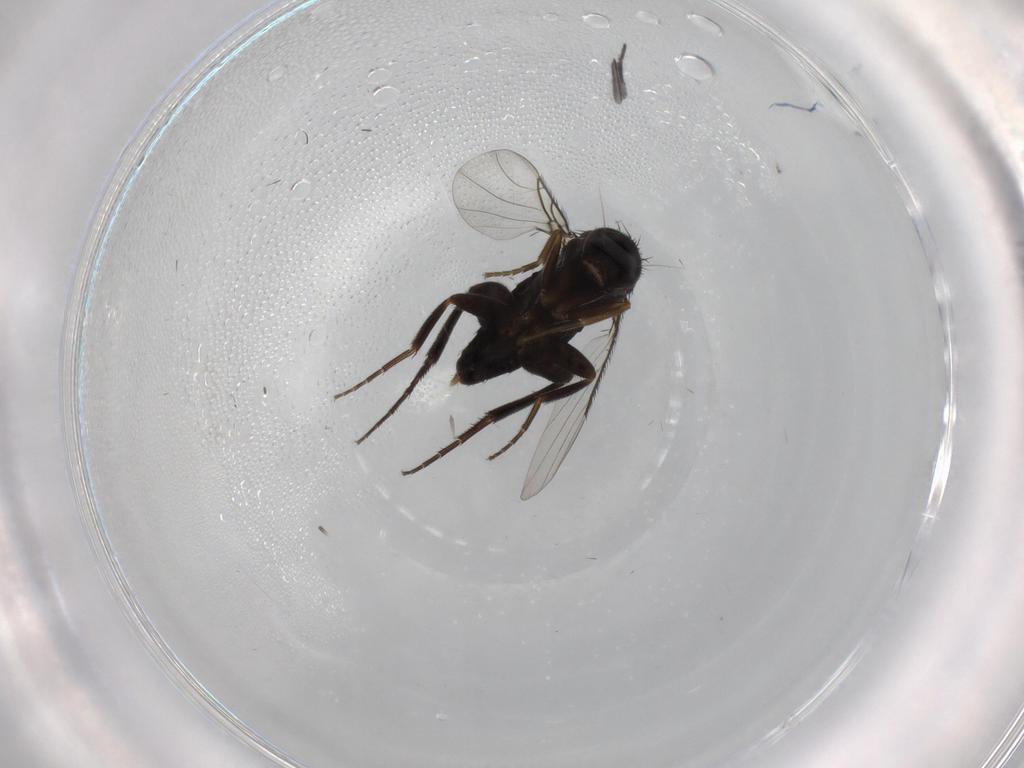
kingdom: Animalia
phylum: Arthropoda
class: Insecta
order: Diptera
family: Phoridae
